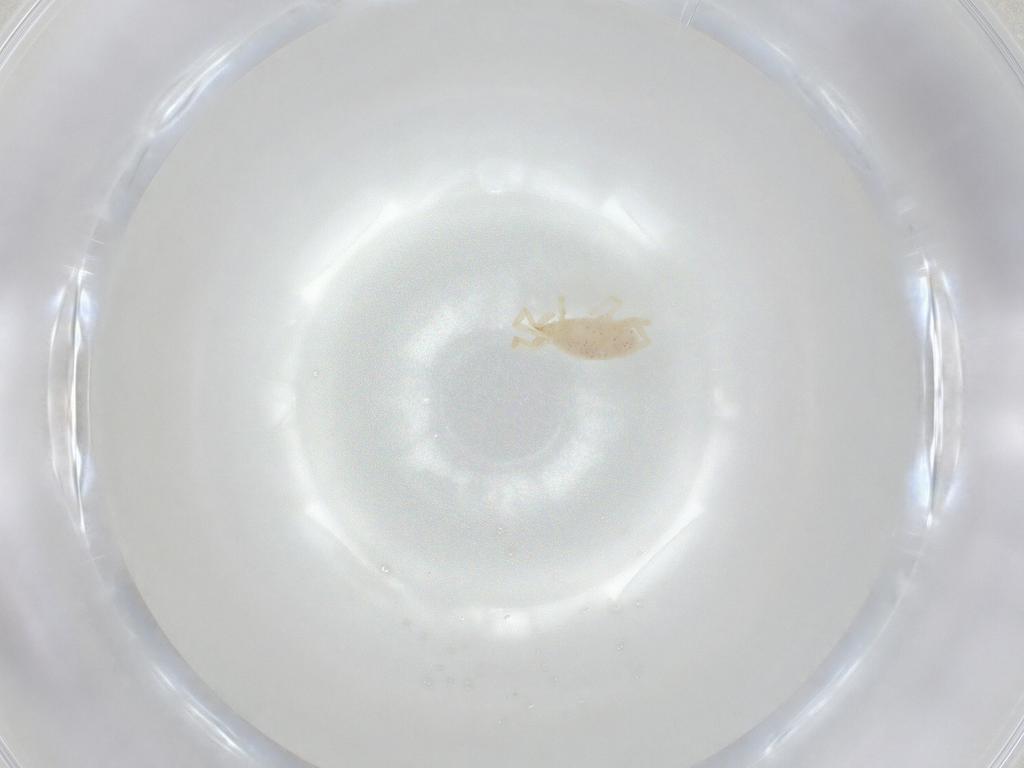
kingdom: Animalia
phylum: Arthropoda
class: Arachnida
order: Trombidiformes
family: Erythraeidae
